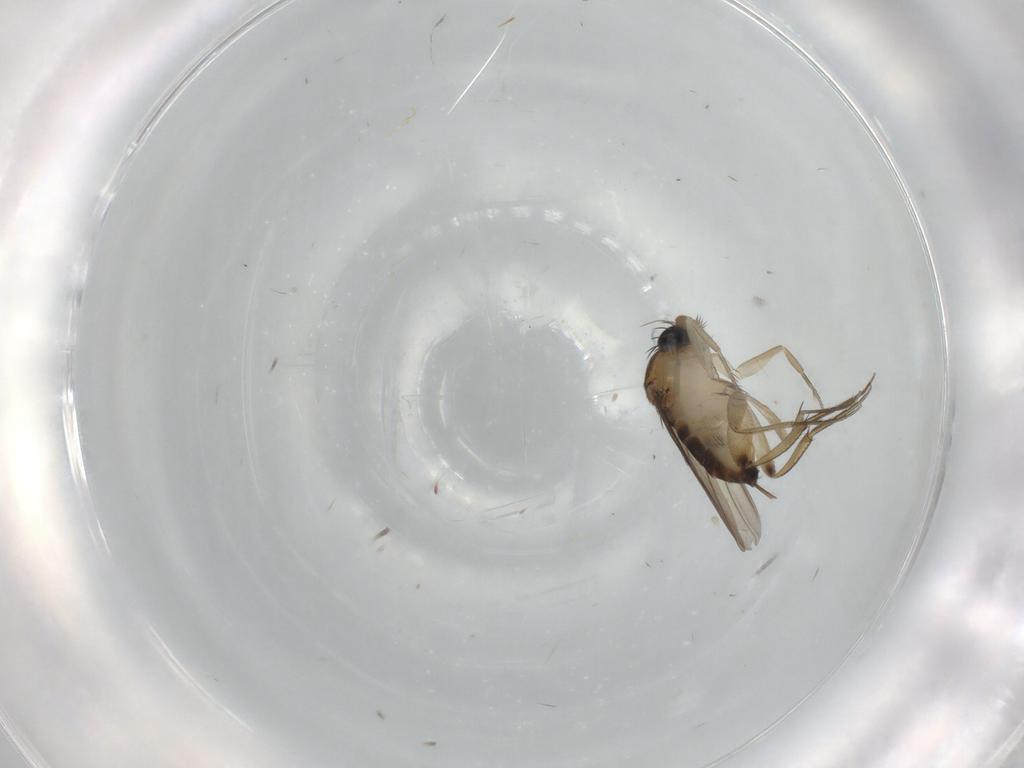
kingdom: Animalia
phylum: Arthropoda
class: Insecta
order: Diptera
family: Phoridae
